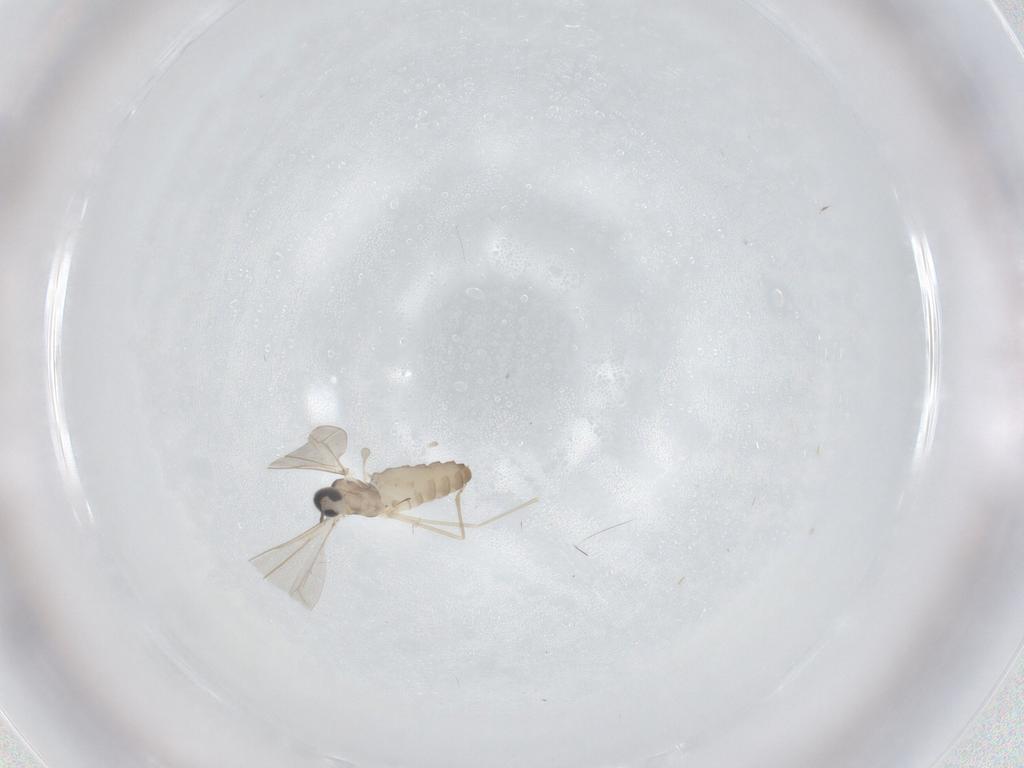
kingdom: Animalia
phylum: Arthropoda
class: Insecta
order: Diptera
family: Cecidomyiidae
